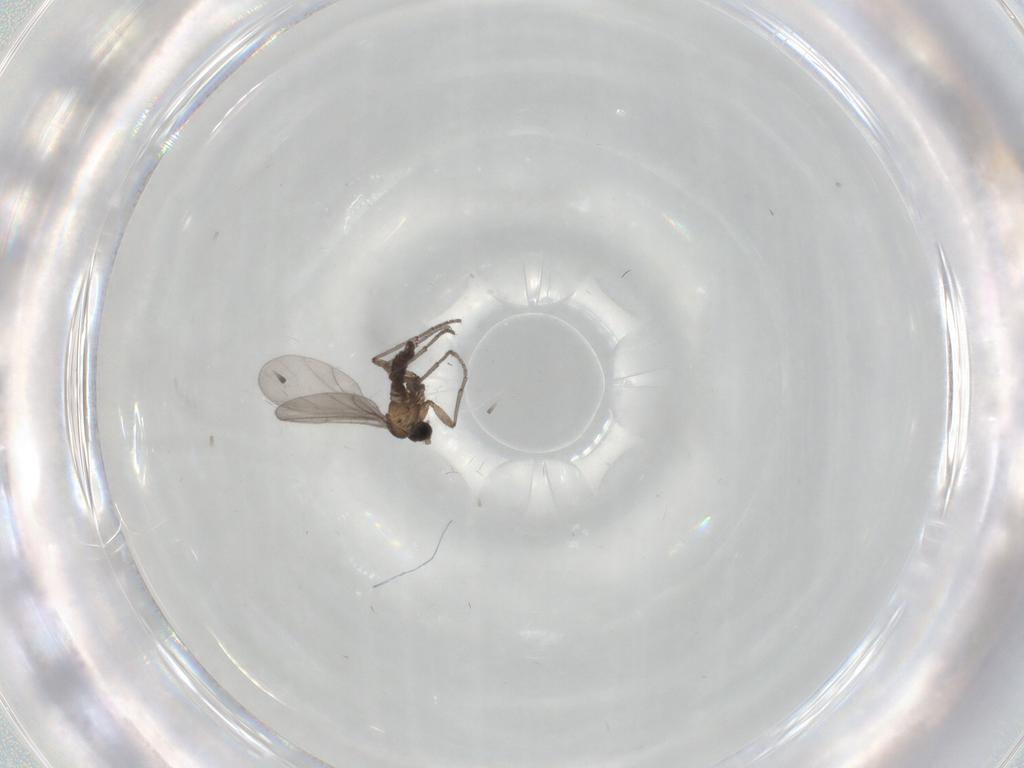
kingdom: Animalia
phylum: Arthropoda
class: Insecta
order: Diptera
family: Sciaridae
